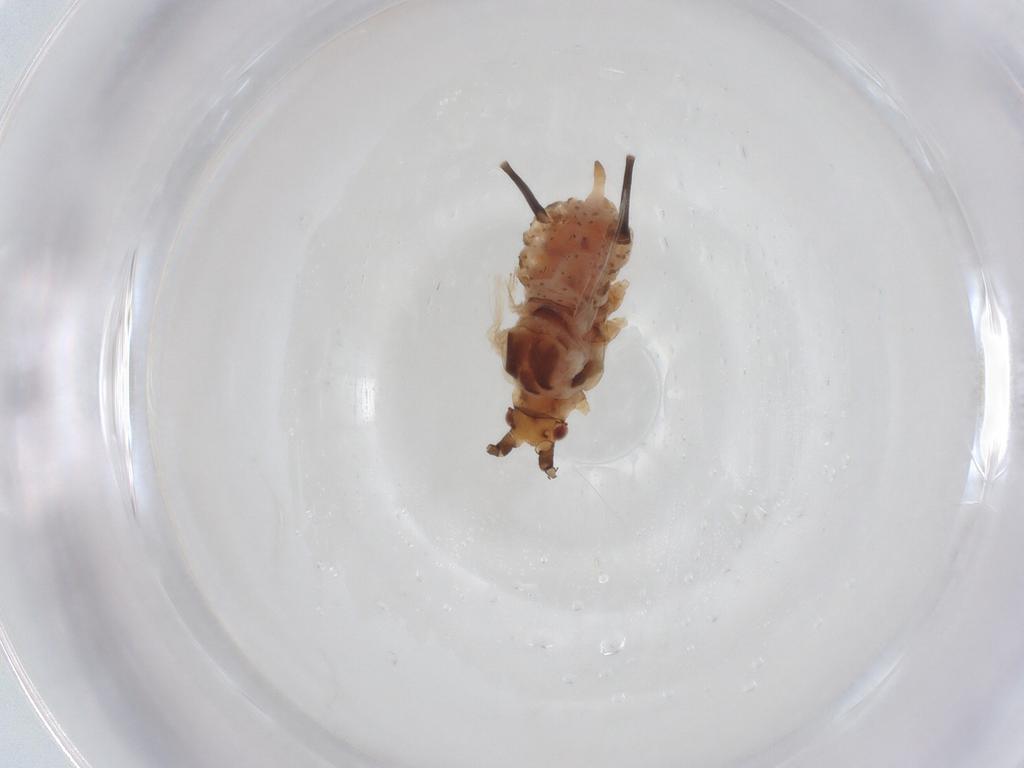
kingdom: Animalia
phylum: Arthropoda
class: Insecta
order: Hemiptera
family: Aphididae
